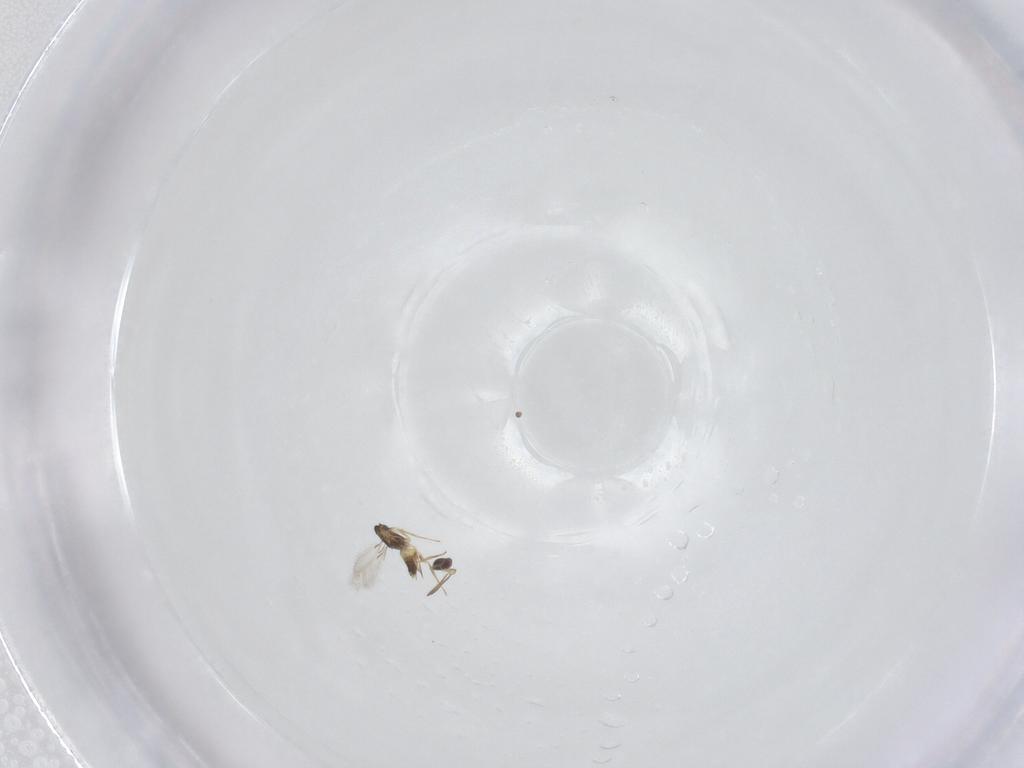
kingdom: Animalia
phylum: Arthropoda
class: Insecta
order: Hymenoptera
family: Mymaridae
